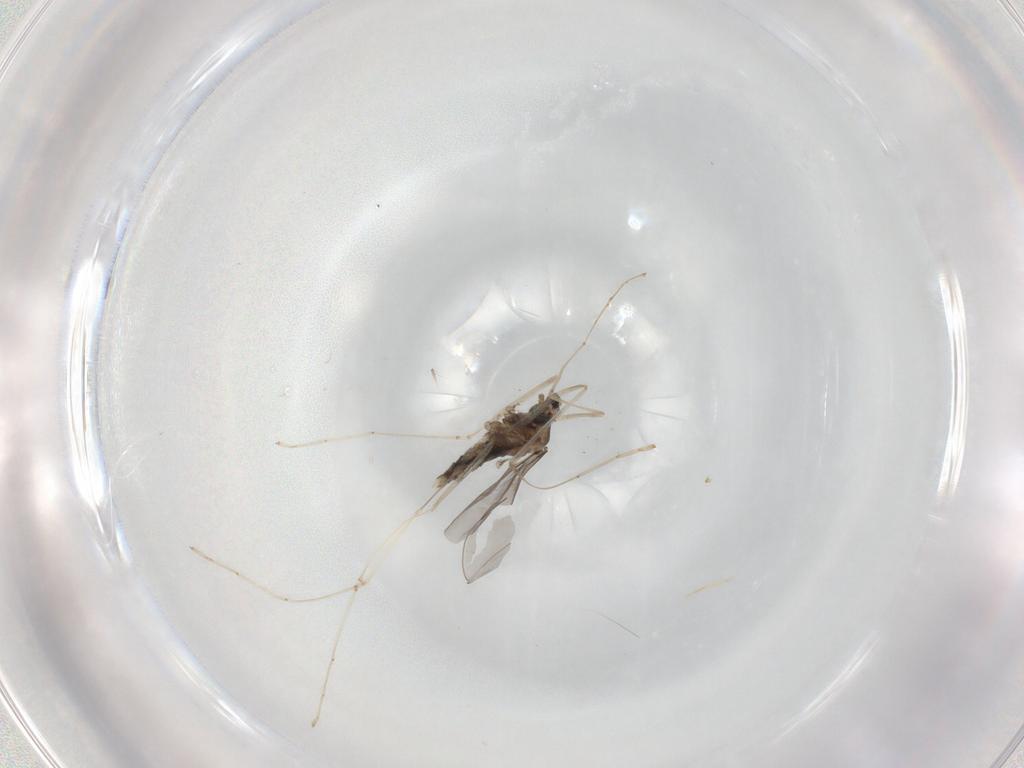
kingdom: Animalia
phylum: Arthropoda
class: Insecta
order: Diptera
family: Cecidomyiidae
